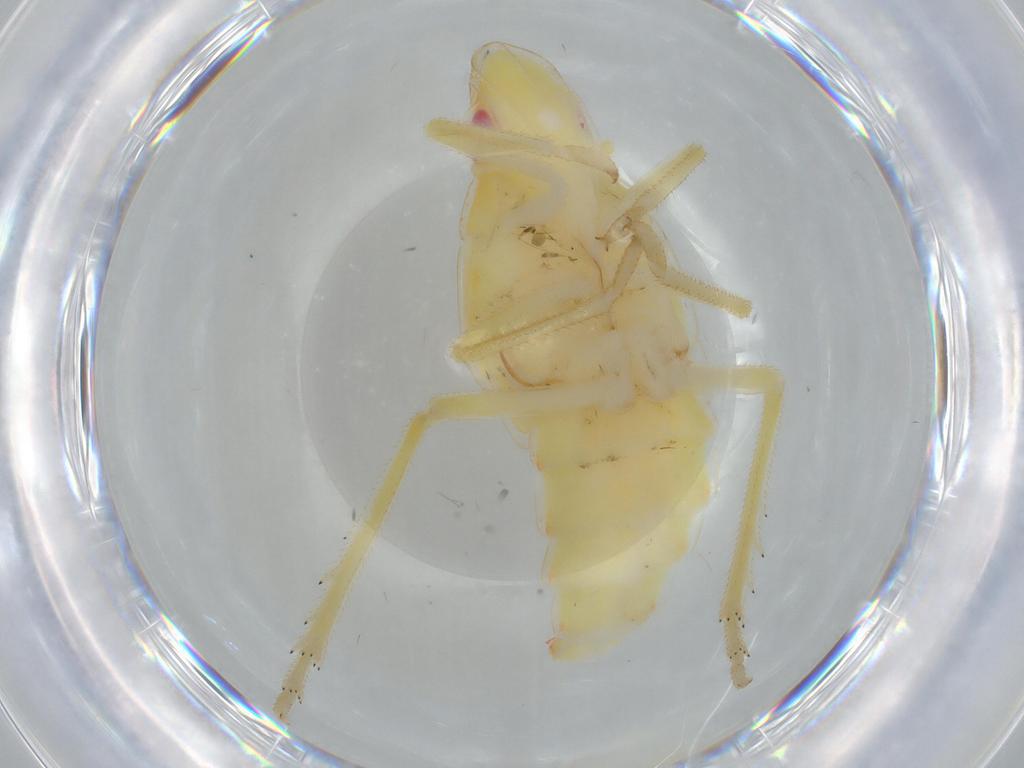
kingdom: Animalia
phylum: Arthropoda
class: Insecta
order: Hemiptera
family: Tropiduchidae
